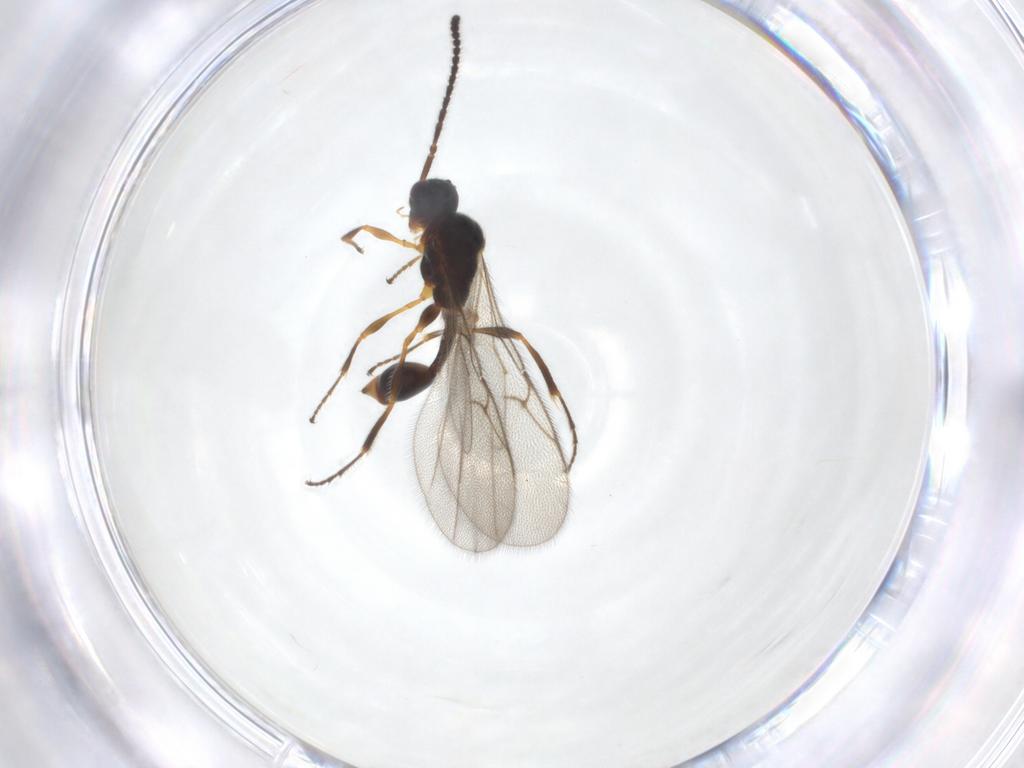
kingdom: Animalia
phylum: Arthropoda
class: Insecta
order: Hymenoptera
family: Diapriidae
